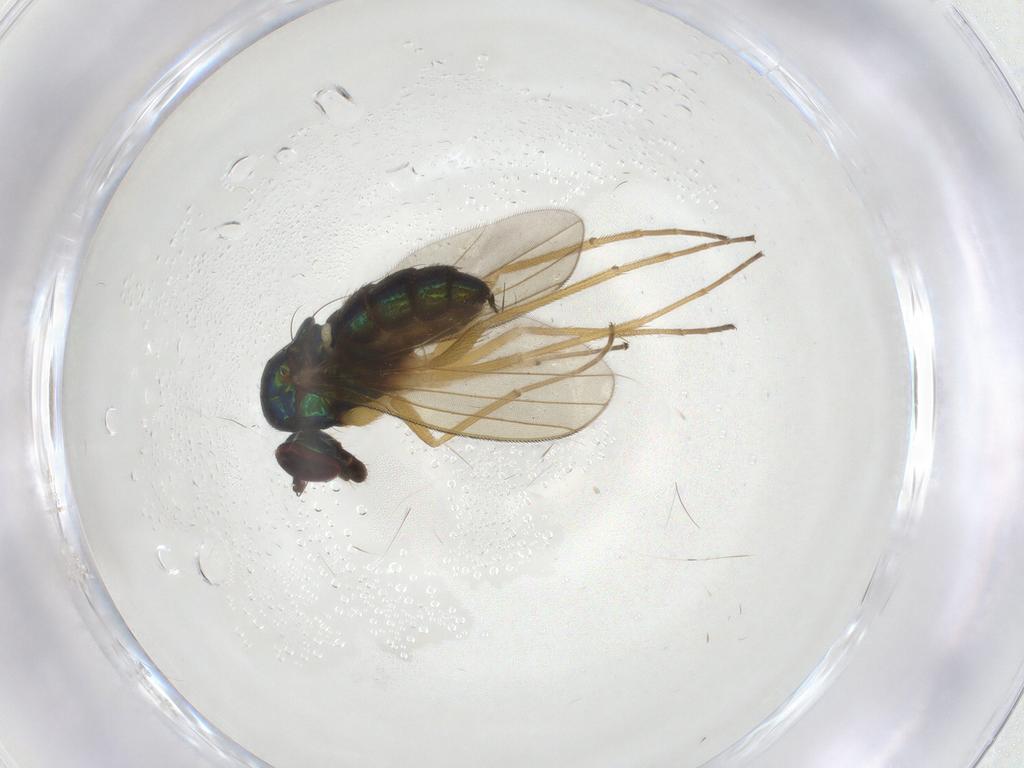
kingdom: Animalia
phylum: Arthropoda
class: Insecta
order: Diptera
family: Dolichopodidae
